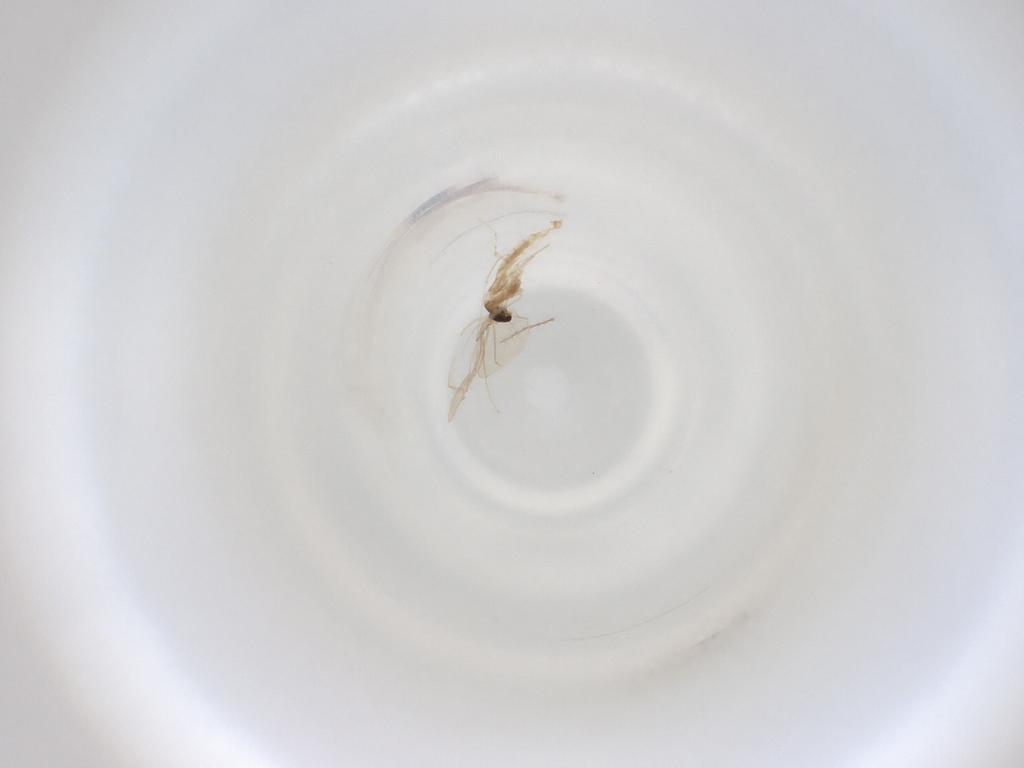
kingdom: Animalia
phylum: Arthropoda
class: Insecta
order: Diptera
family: Cecidomyiidae
